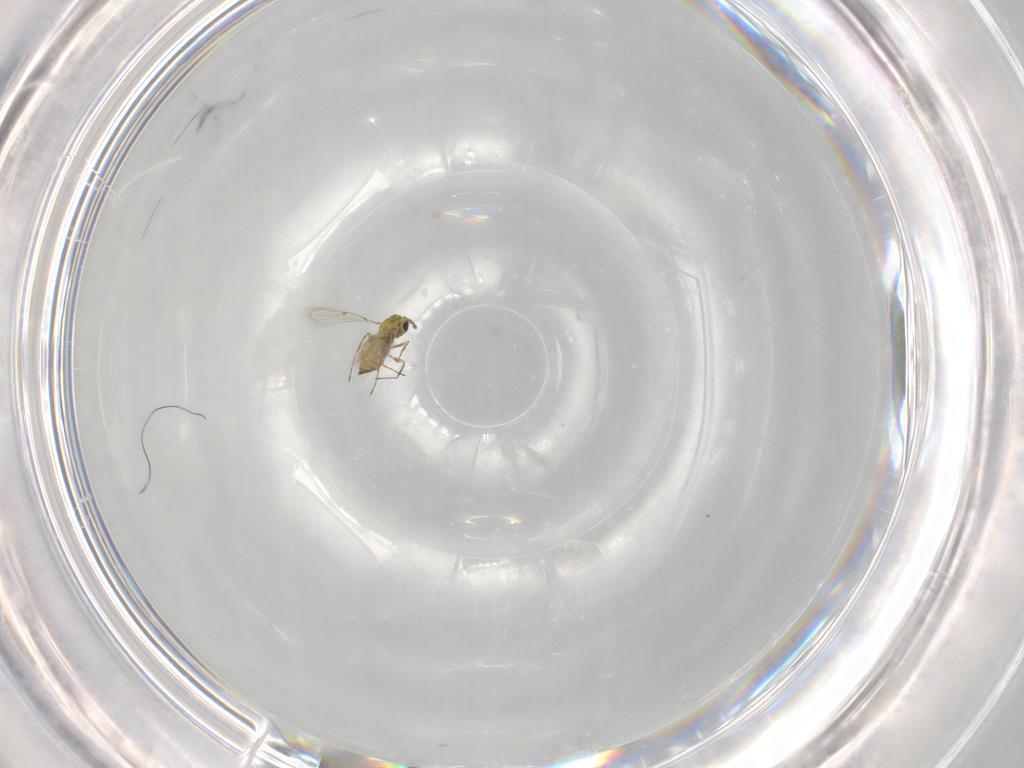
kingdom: Animalia
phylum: Arthropoda
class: Insecta
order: Hymenoptera
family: Trichogrammatidae
